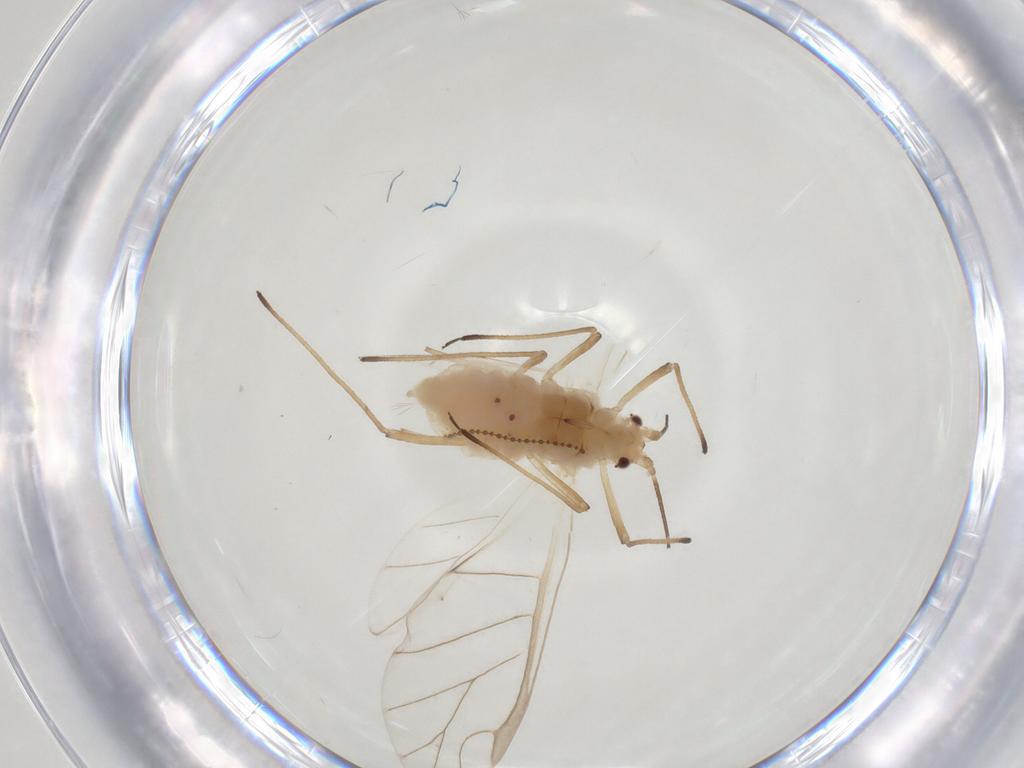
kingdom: Animalia
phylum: Arthropoda
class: Insecta
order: Hemiptera
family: Aphididae
